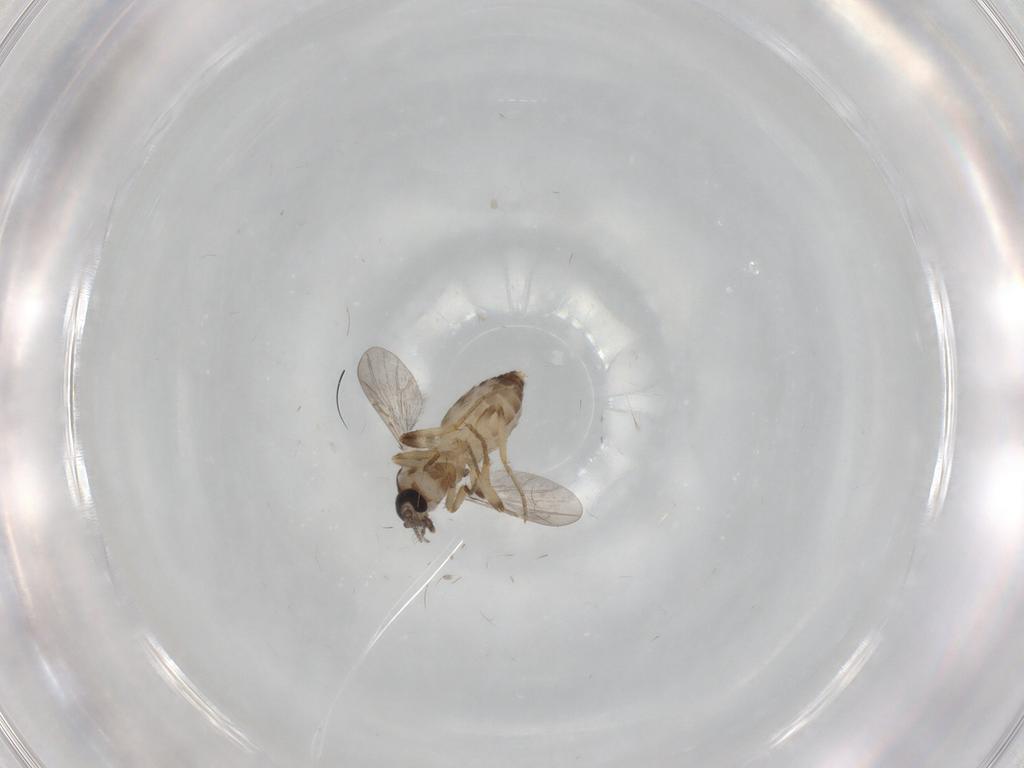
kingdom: Animalia
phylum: Arthropoda
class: Insecta
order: Diptera
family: Ceratopogonidae
